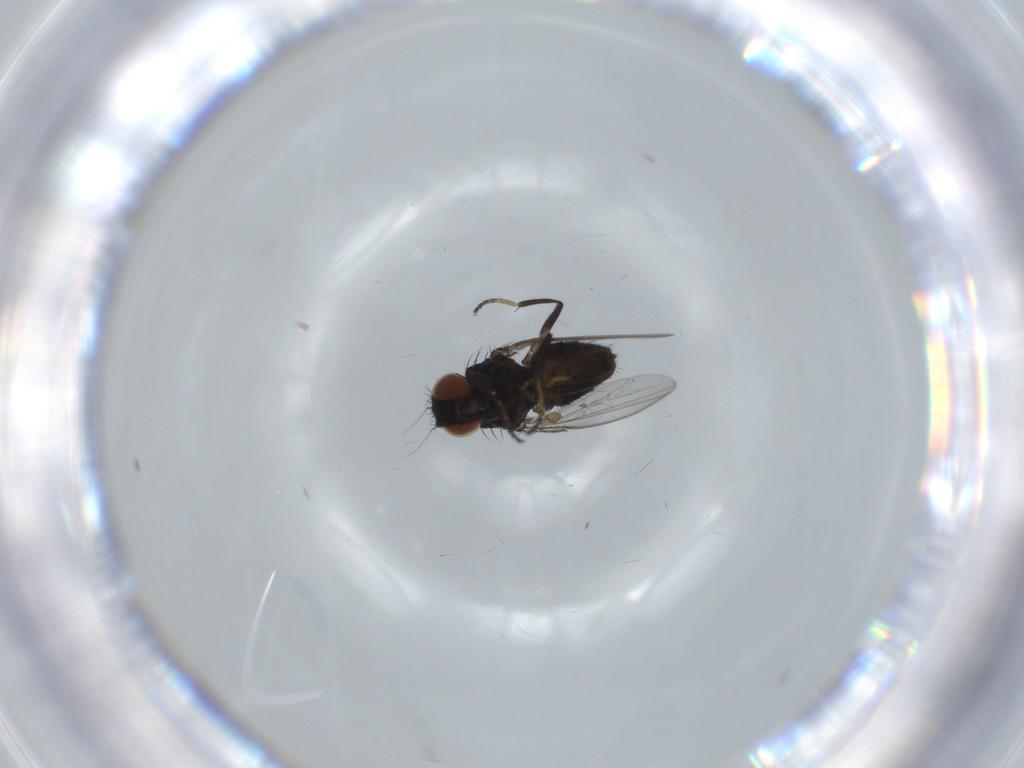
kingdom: Animalia
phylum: Arthropoda
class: Insecta
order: Diptera
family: Milichiidae
